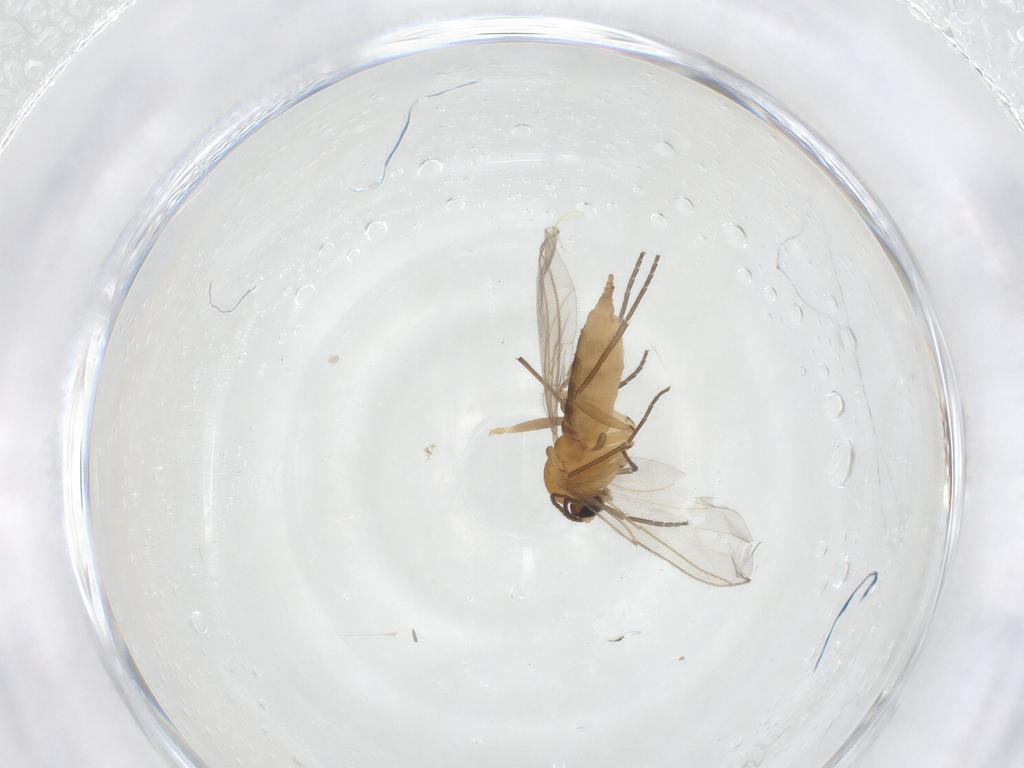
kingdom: Animalia
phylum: Arthropoda
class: Insecta
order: Diptera
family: Sciaridae
